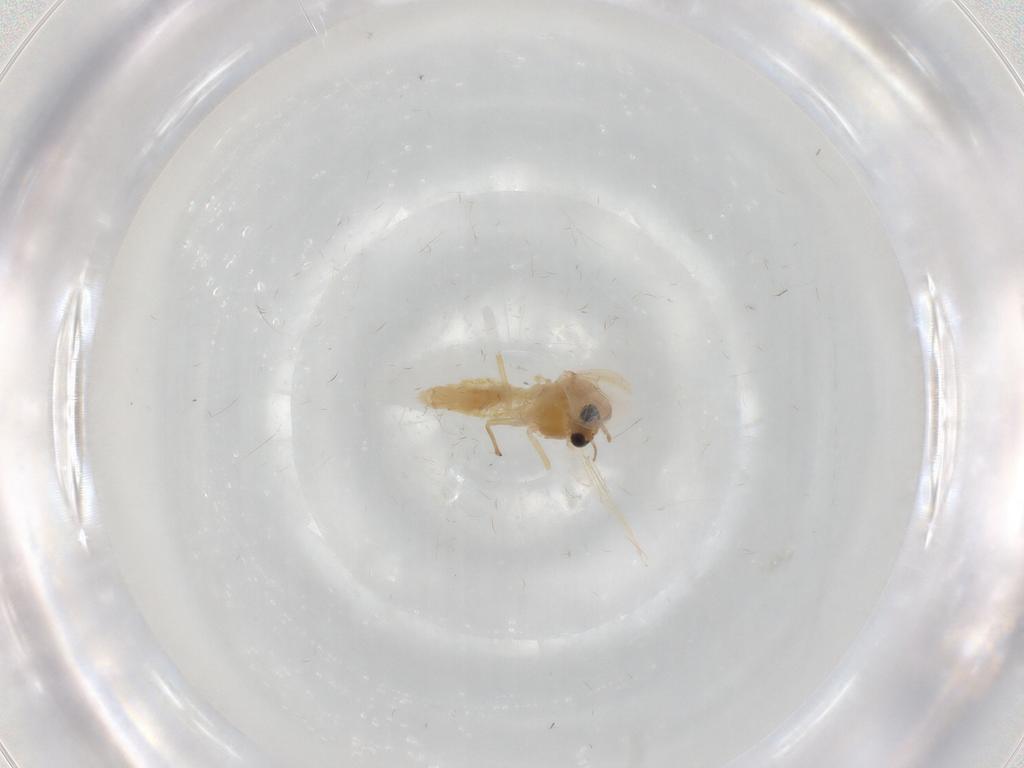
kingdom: Animalia
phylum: Arthropoda
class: Insecta
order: Diptera
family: Chironomidae
